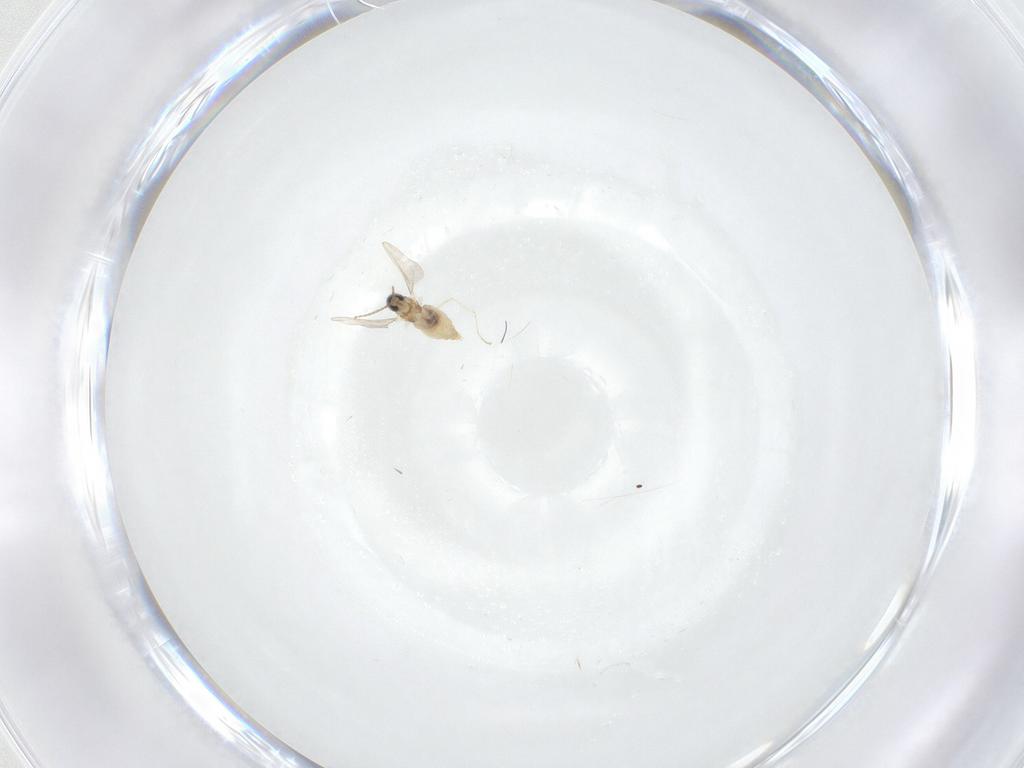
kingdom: Animalia
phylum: Arthropoda
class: Insecta
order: Diptera
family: Cecidomyiidae
